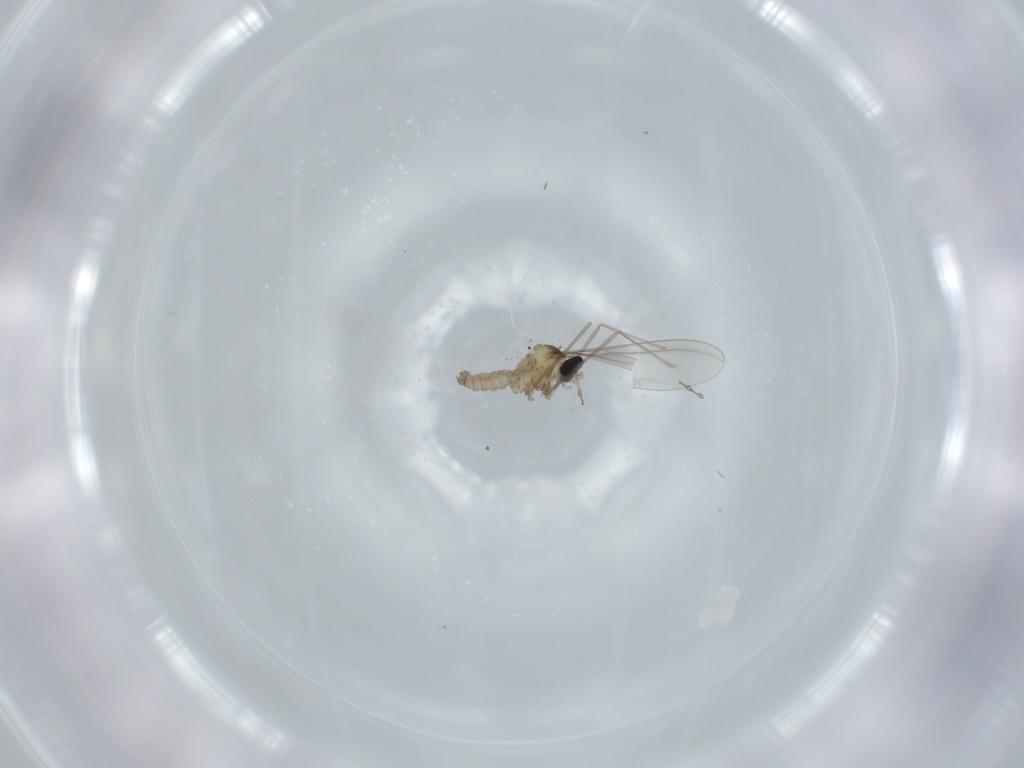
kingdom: Animalia
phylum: Arthropoda
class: Insecta
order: Diptera
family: Cecidomyiidae
